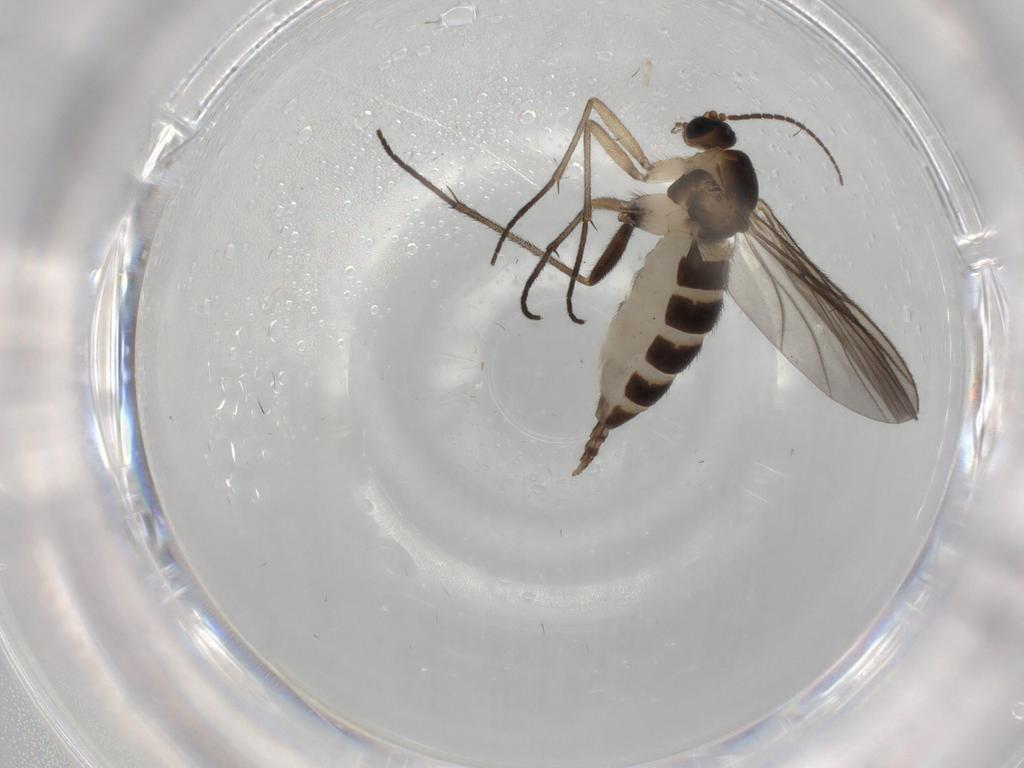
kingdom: Animalia
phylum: Arthropoda
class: Insecta
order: Diptera
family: Sciaridae
